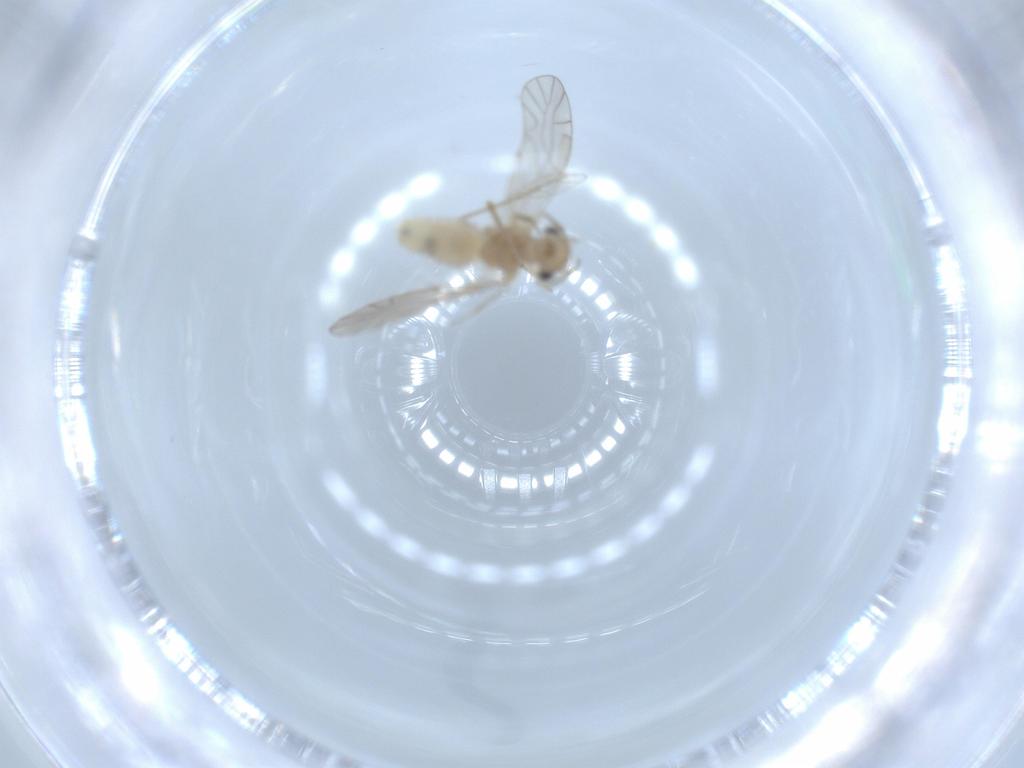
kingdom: Animalia
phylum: Arthropoda
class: Insecta
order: Psocodea
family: Lachesillidae
